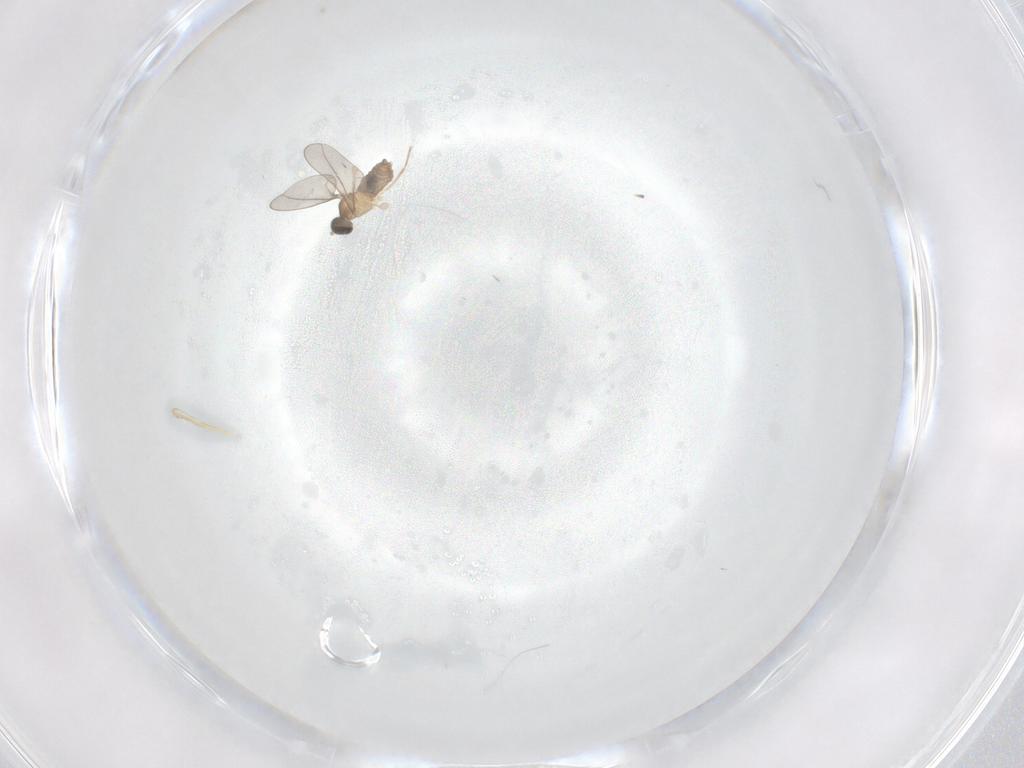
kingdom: Animalia
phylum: Arthropoda
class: Insecta
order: Diptera
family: Cecidomyiidae
